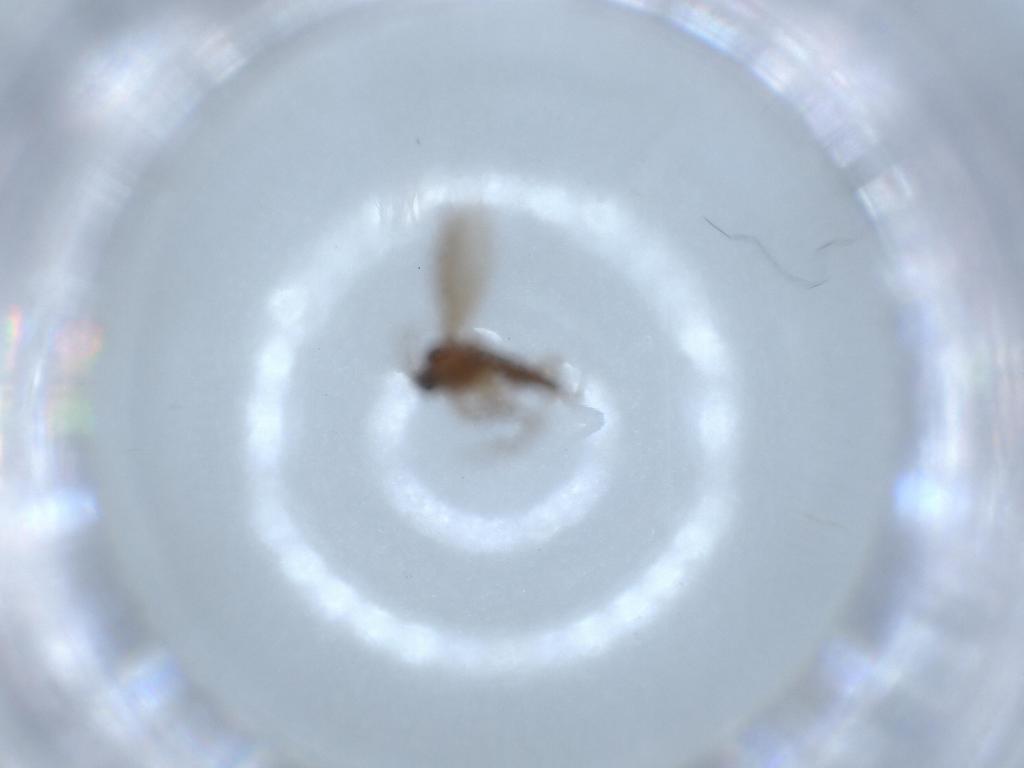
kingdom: Animalia
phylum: Arthropoda
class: Insecta
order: Diptera
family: Sciaridae
